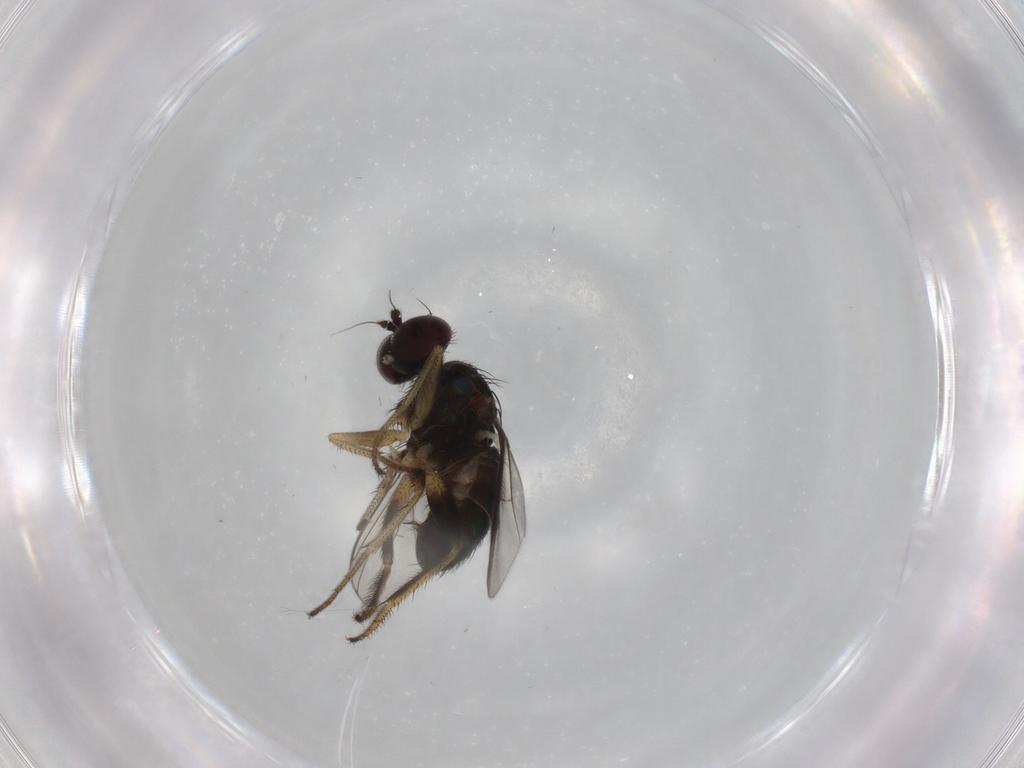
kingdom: Animalia
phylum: Arthropoda
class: Insecta
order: Diptera
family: Dolichopodidae
